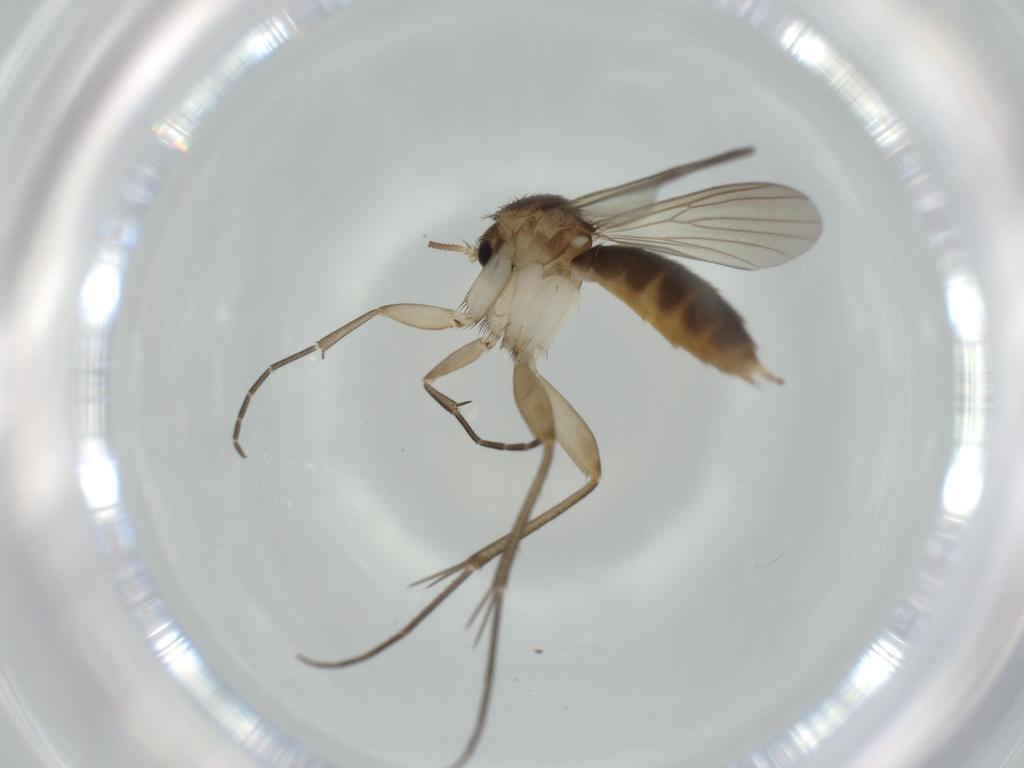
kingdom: Animalia
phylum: Arthropoda
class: Insecta
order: Diptera
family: Mycetophilidae
